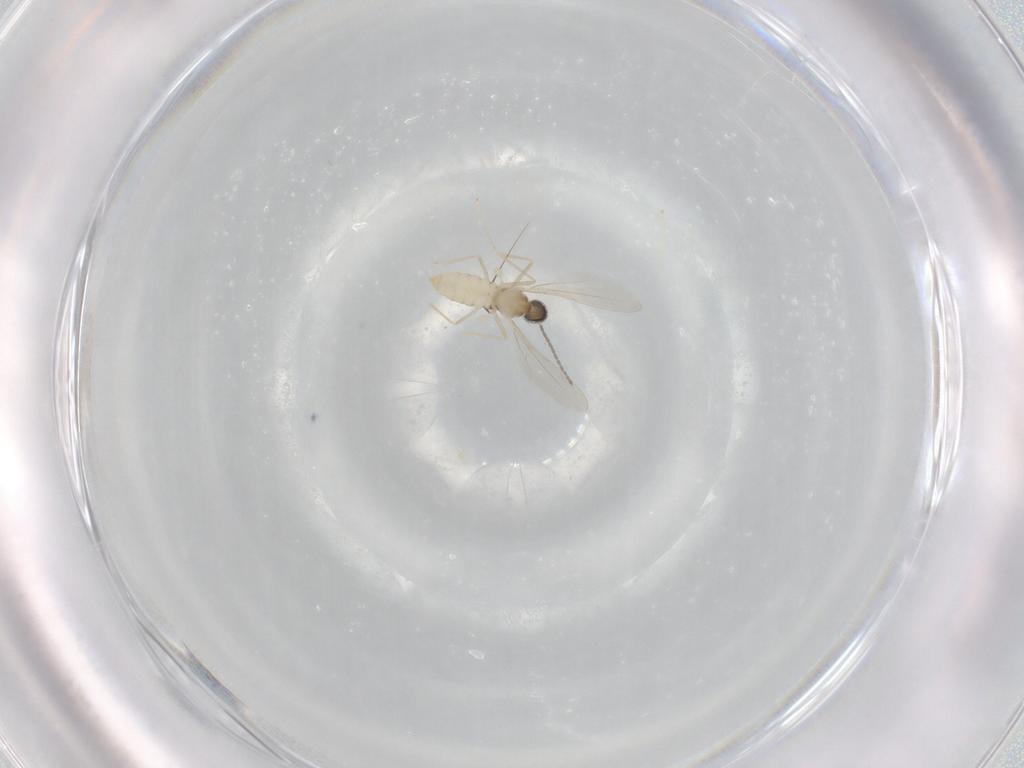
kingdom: Animalia
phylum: Arthropoda
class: Insecta
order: Diptera
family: Cecidomyiidae
